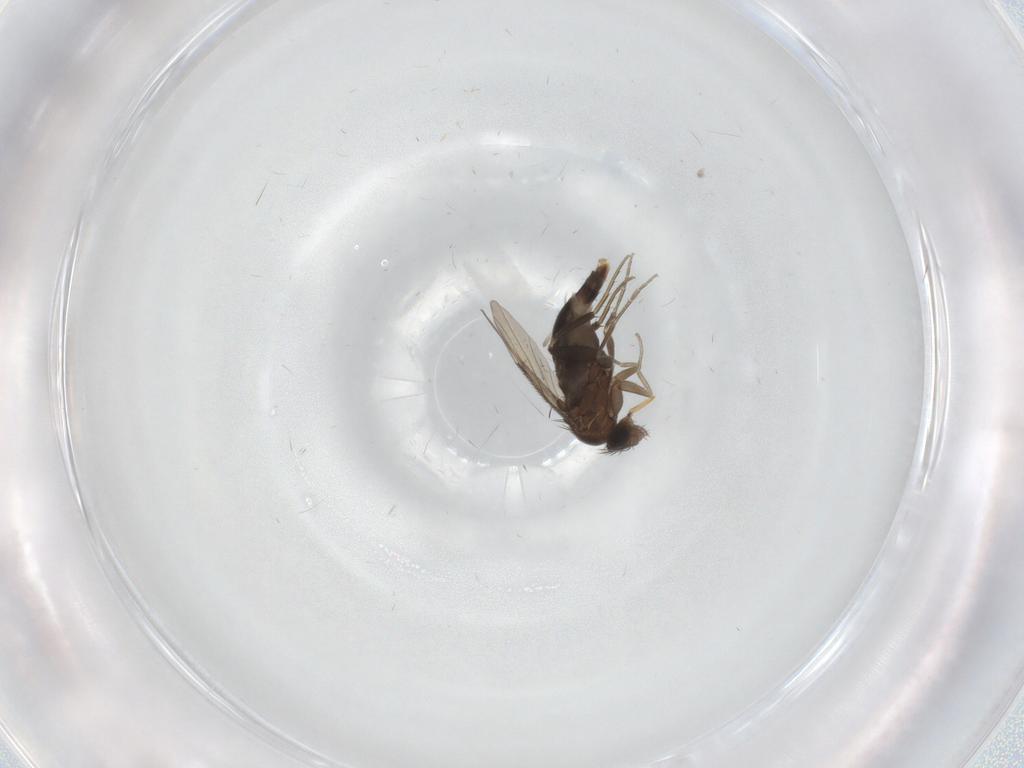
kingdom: Animalia
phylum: Arthropoda
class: Insecta
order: Diptera
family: Phoridae
